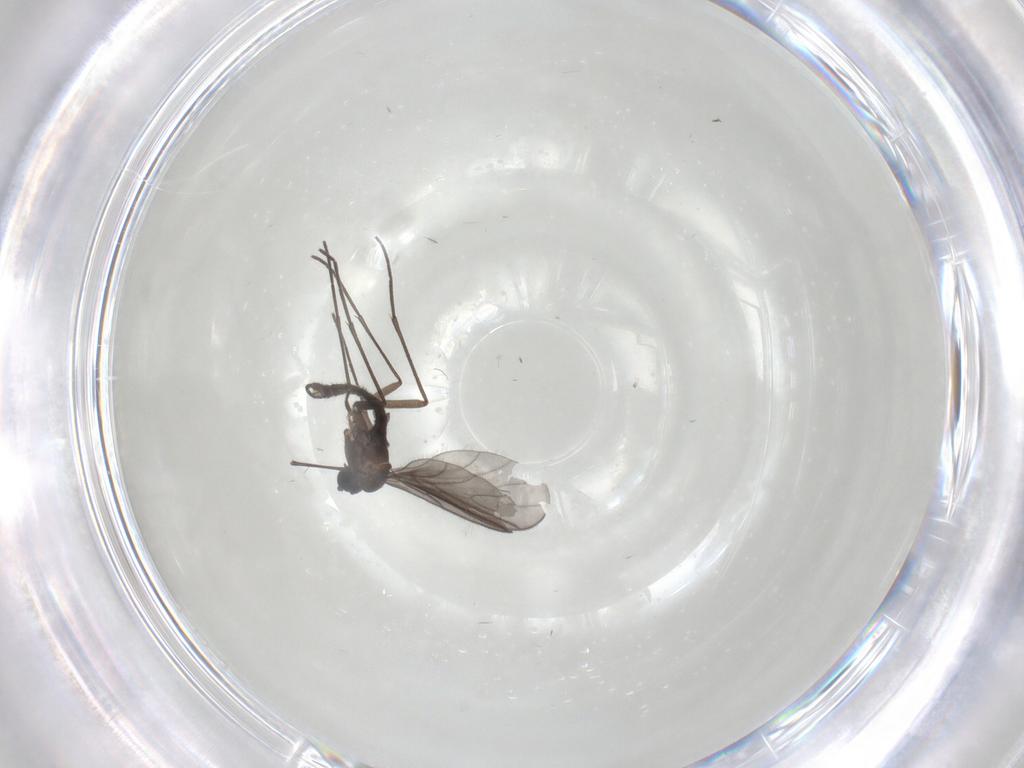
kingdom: Animalia
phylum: Arthropoda
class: Insecta
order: Diptera
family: Sciaridae
